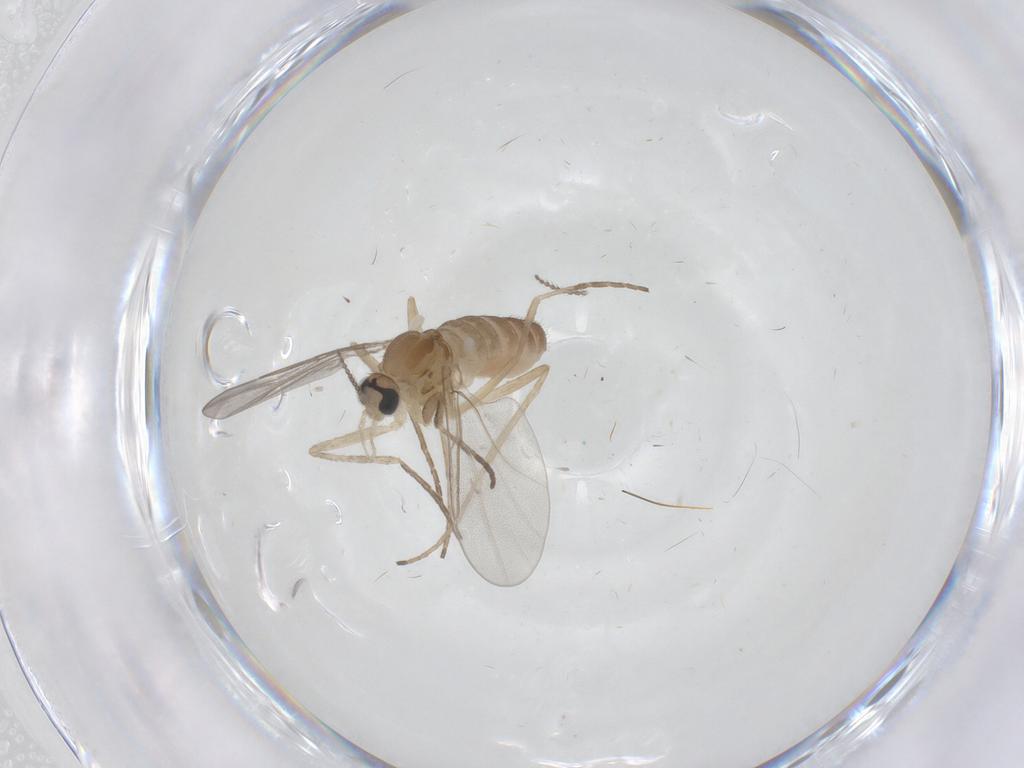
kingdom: Animalia
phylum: Arthropoda
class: Insecta
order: Diptera
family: Cecidomyiidae
